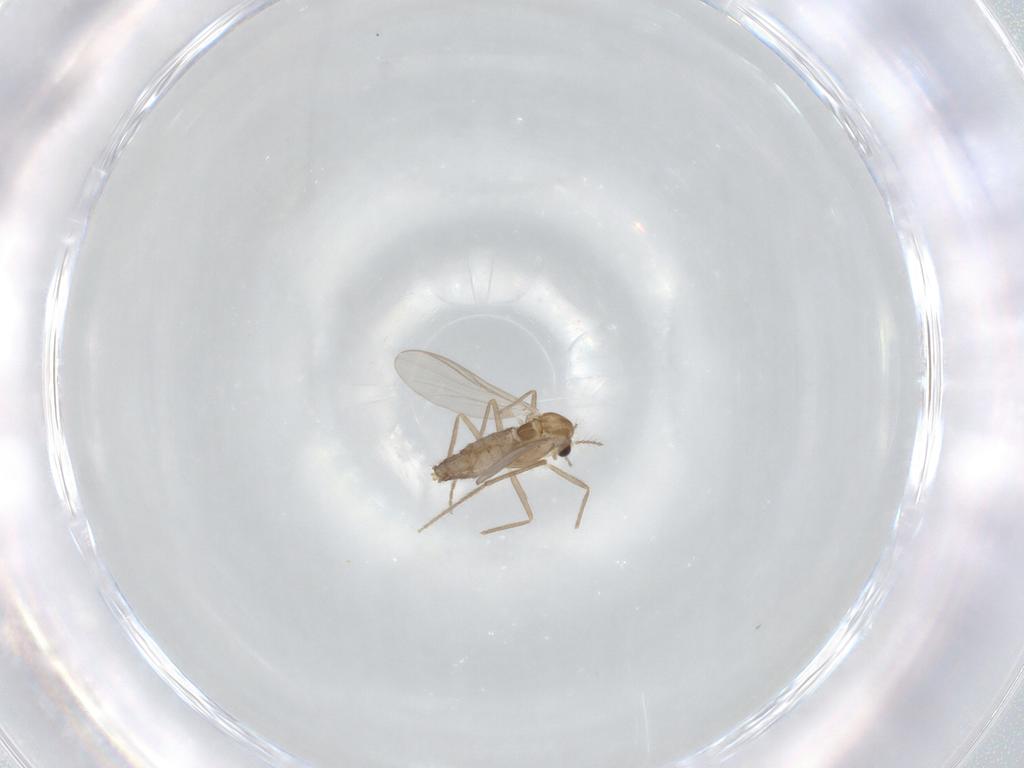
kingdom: Animalia
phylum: Arthropoda
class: Insecta
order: Diptera
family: Chironomidae
